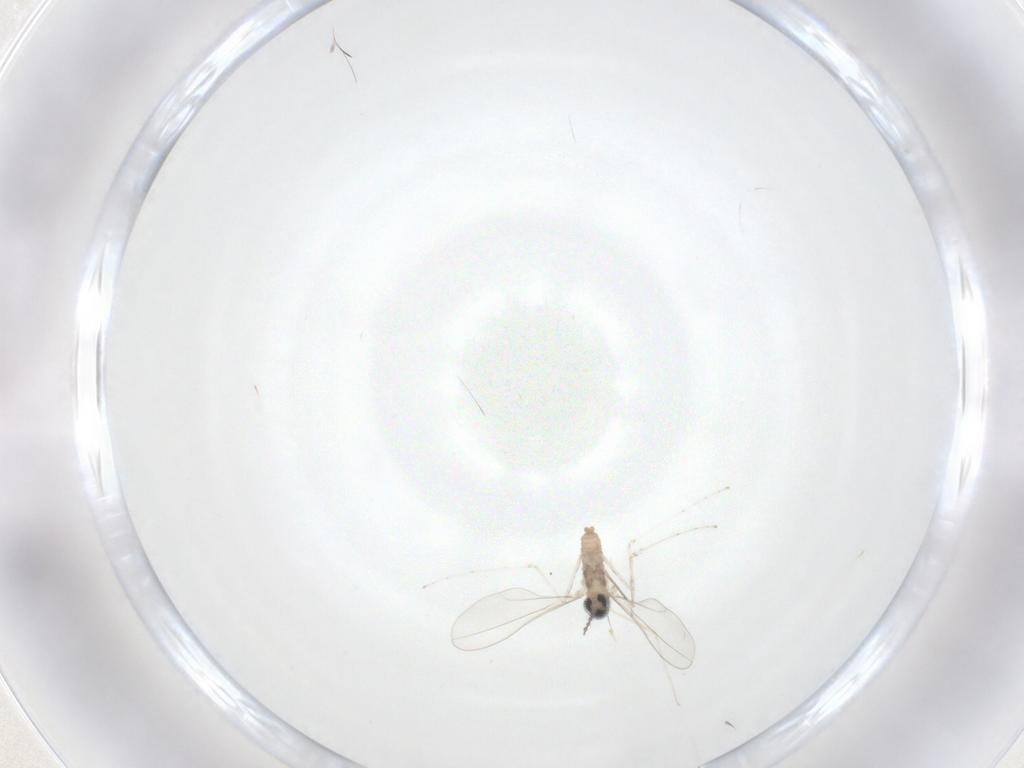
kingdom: Animalia
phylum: Arthropoda
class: Insecta
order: Diptera
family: Cecidomyiidae
